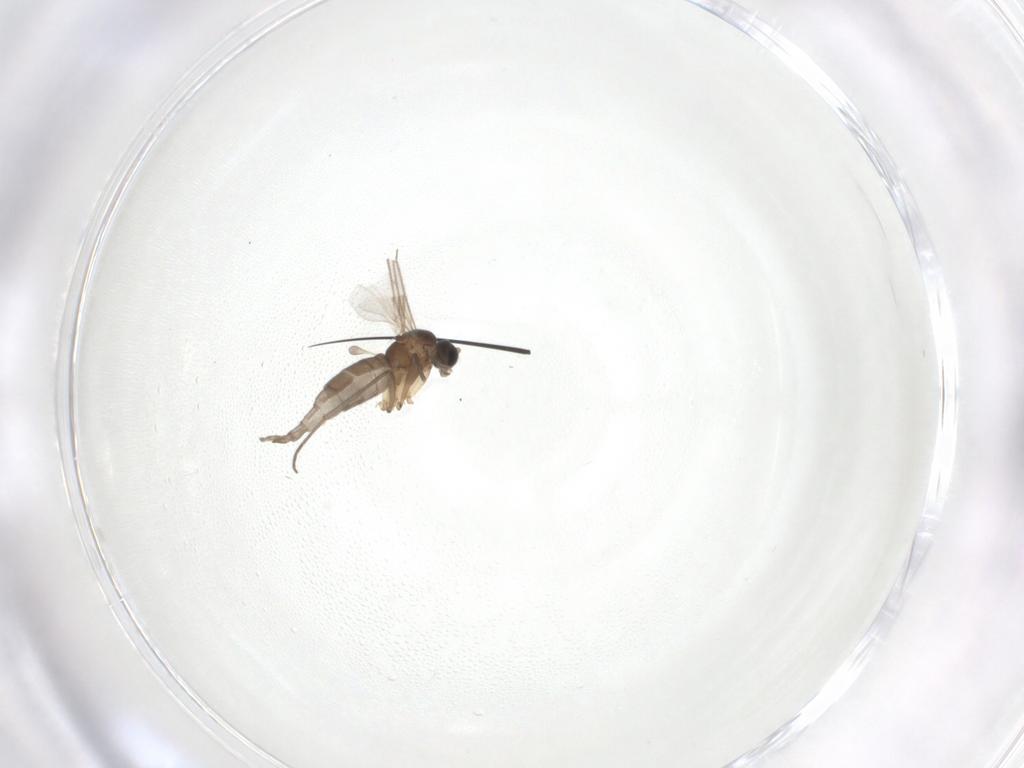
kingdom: Animalia
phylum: Arthropoda
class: Insecta
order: Diptera
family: Sciaridae
